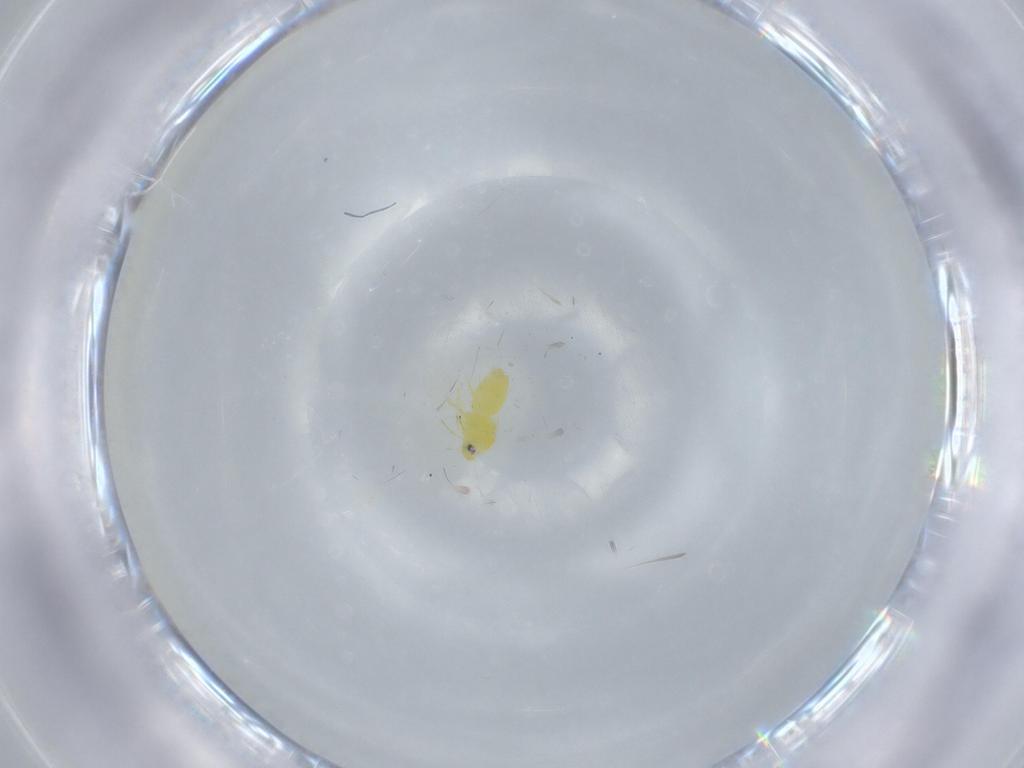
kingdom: Animalia
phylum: Arthropoda
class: Insecta
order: Hemiptera
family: Aleyrodidae
